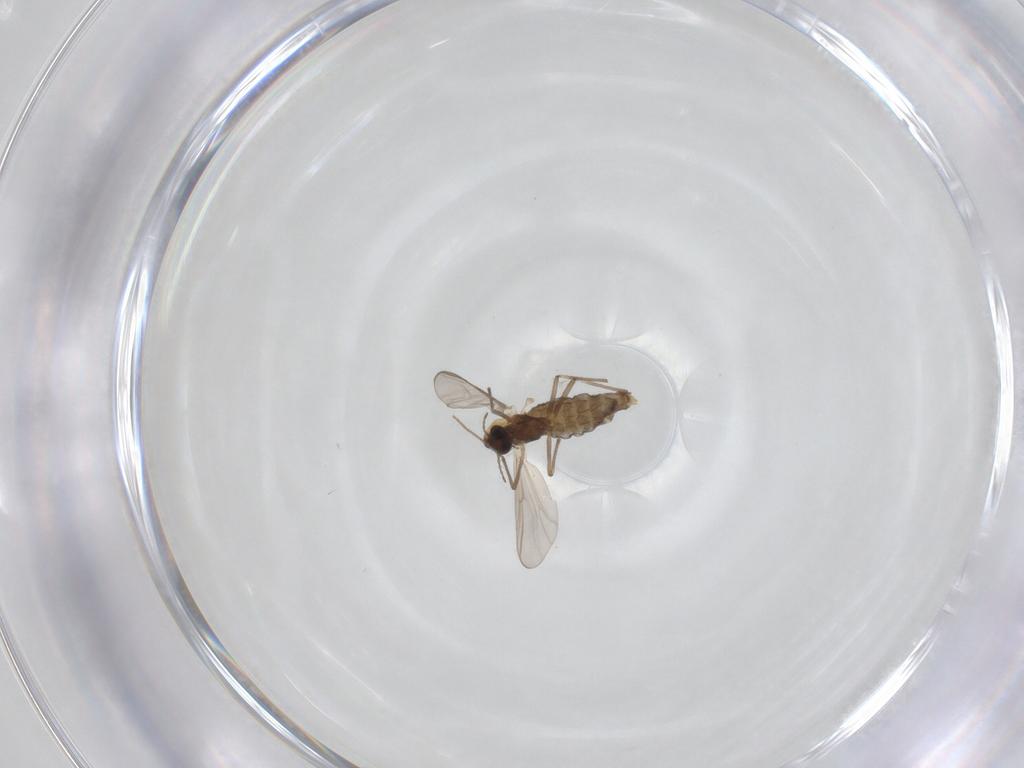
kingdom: Animalia
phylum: Arthropoda
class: Insecta
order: Diptera
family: Chironomidae
